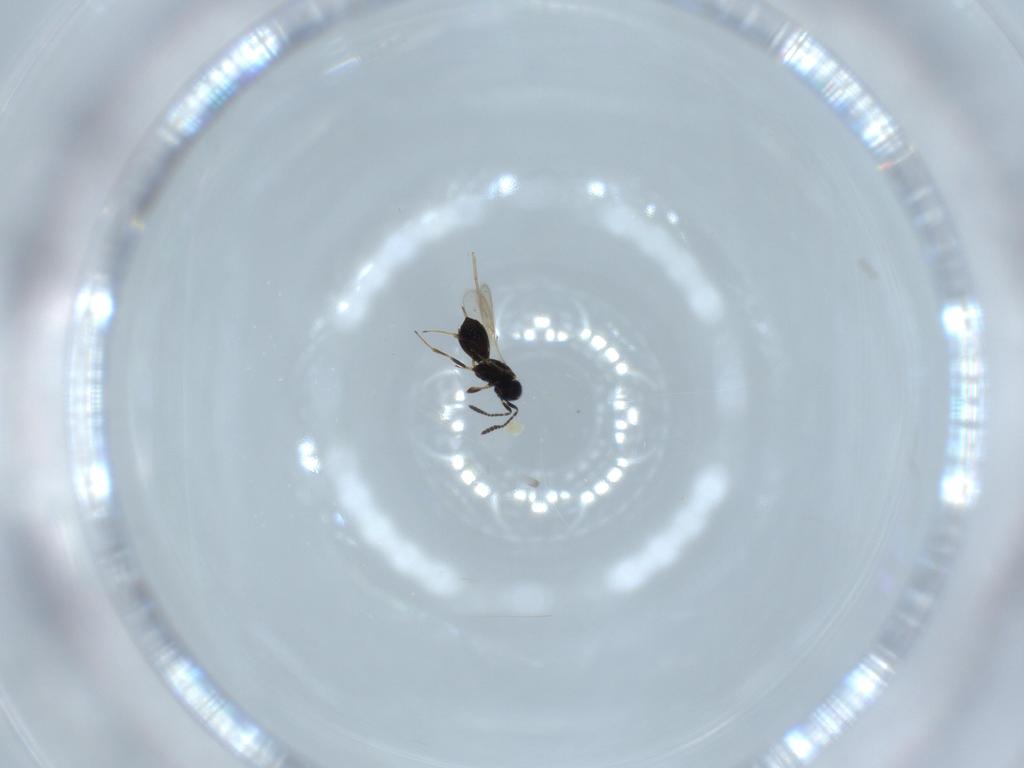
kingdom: Animalia
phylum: Arthropoda
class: Insecta
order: Hymenoptera
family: Scelionidae
